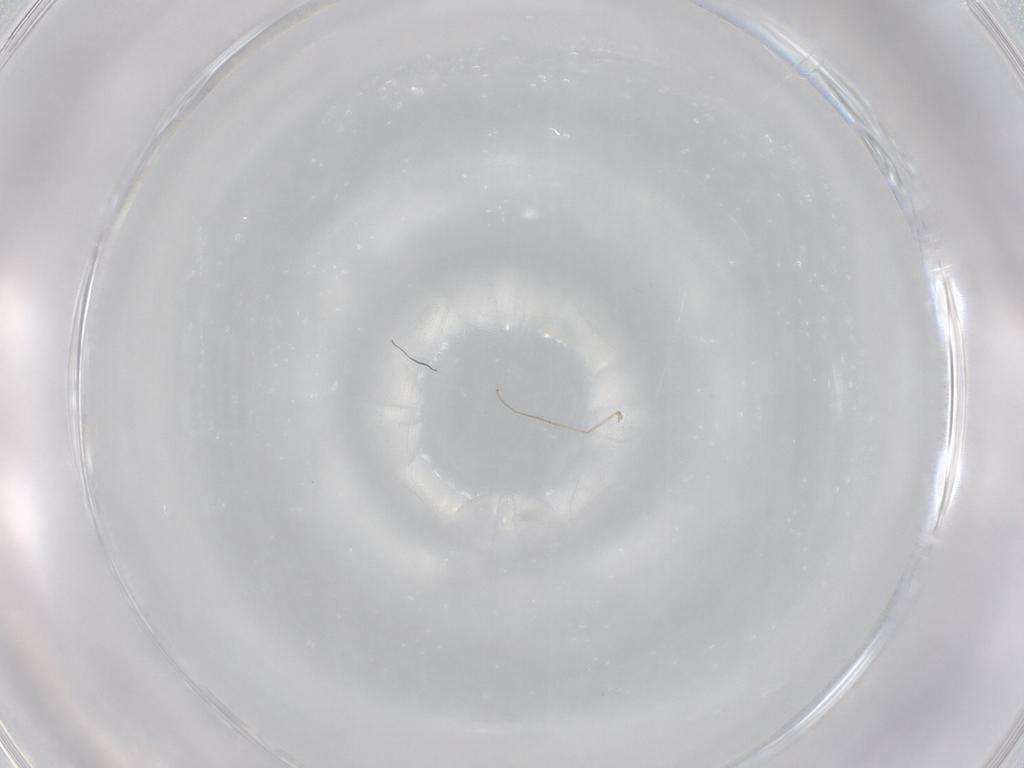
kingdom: Animalia
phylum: Arthropoda
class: Insecta
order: Diptera
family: Cecidomyiidae
